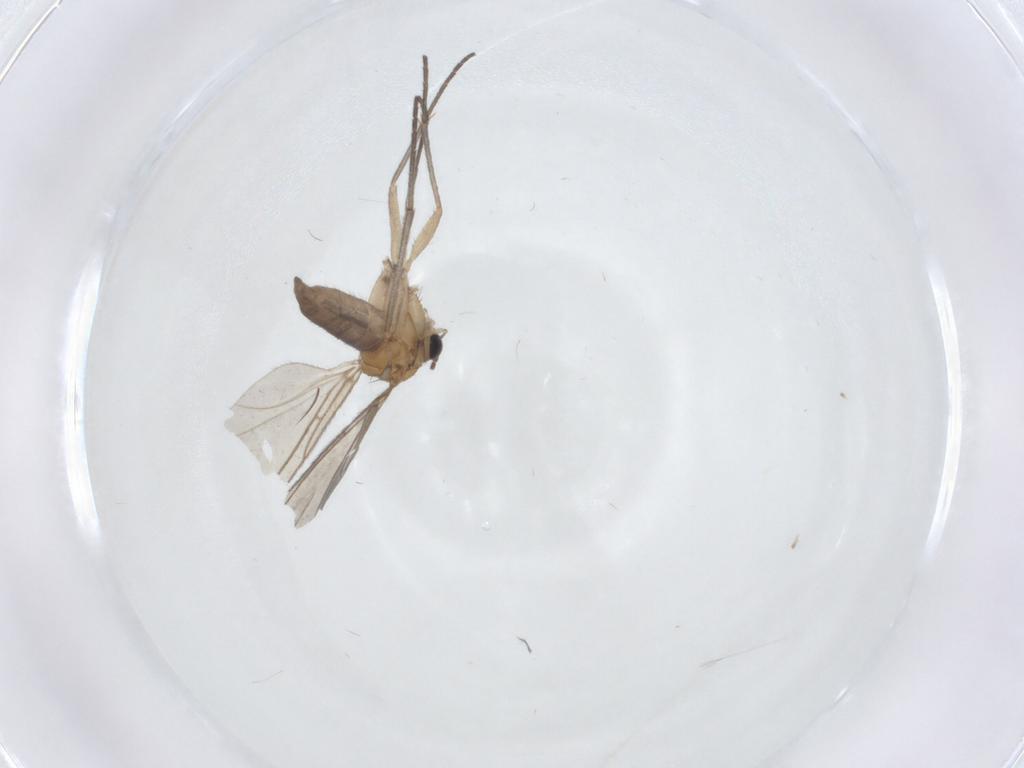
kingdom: Animalia
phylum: Arthropoda
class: Insecta
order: Diptera
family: Sciaridae
